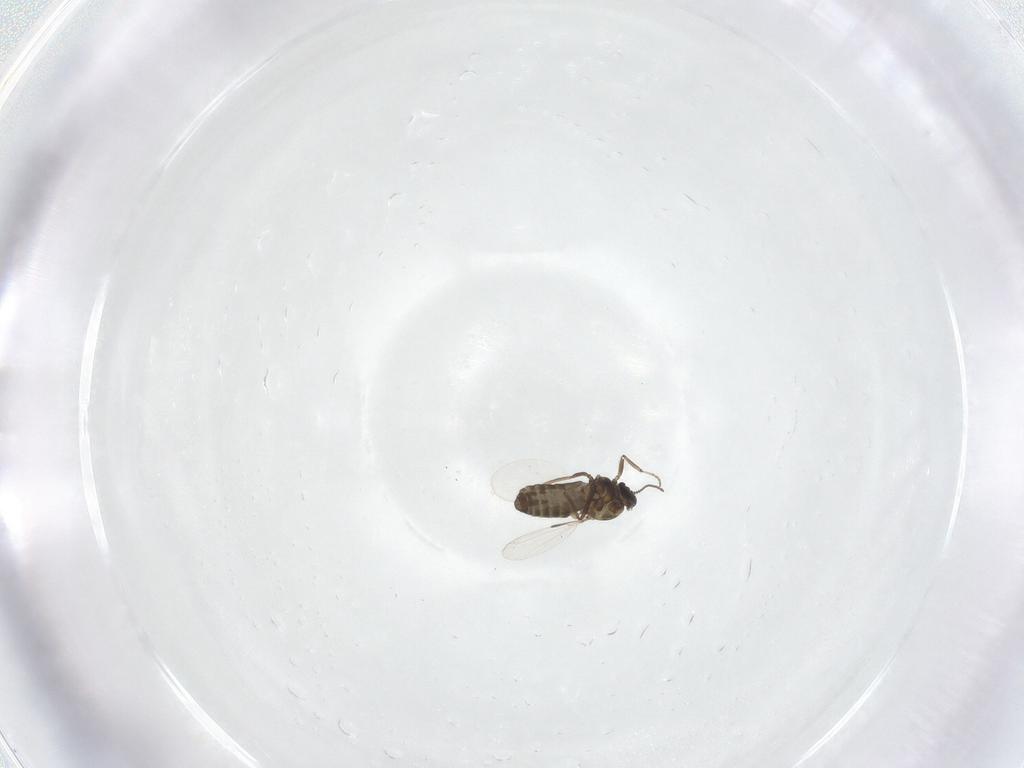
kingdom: Animalia
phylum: Arthropoda
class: Insecta
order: Diptera
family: Ceratopogonidae
